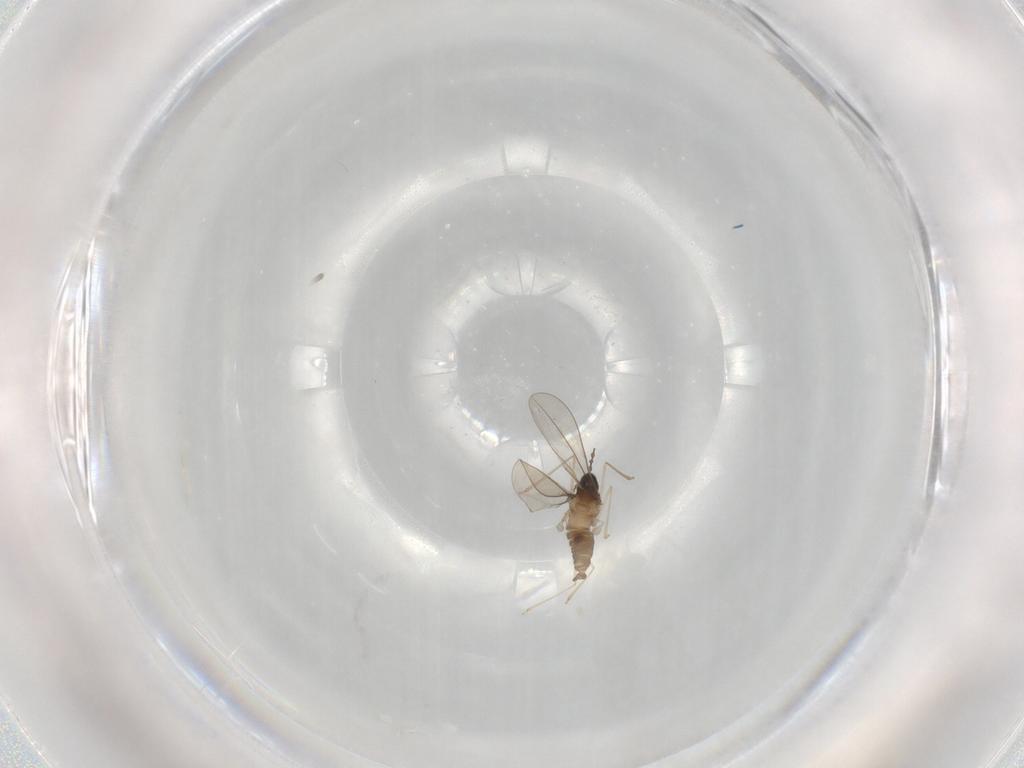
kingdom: Animalia
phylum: Arthropoda
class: Insecta
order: Diptera
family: Cecidomyiidae
